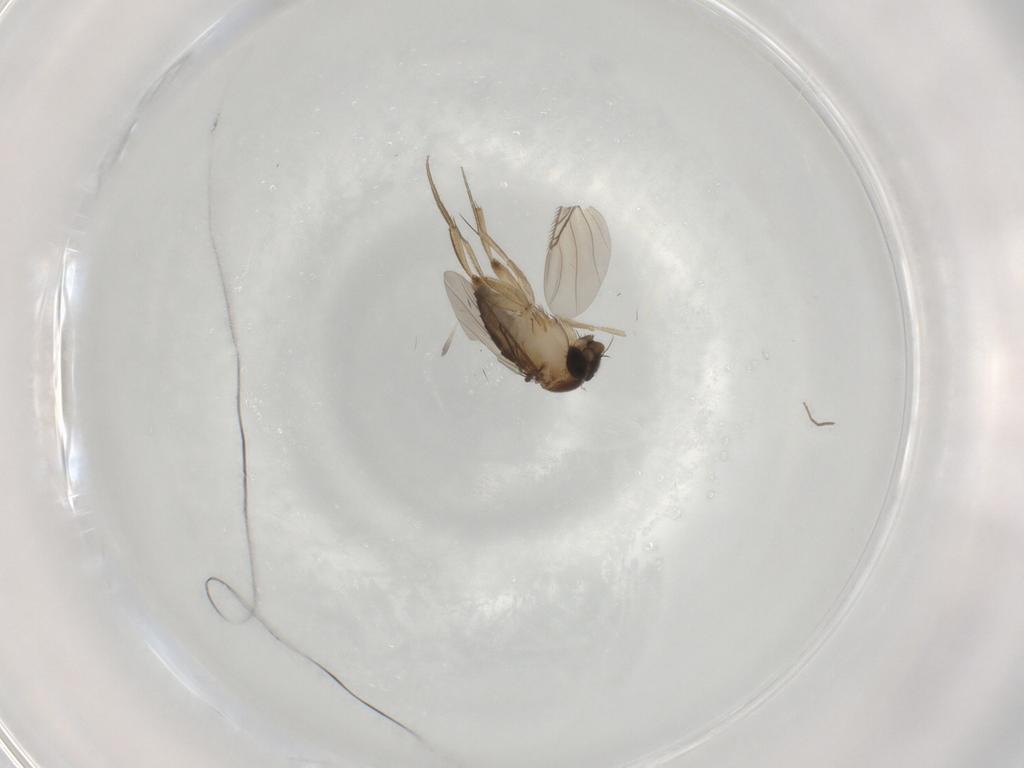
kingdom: Animalia
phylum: Arthropoda
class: Insecta
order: Diptera
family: Phoridae
